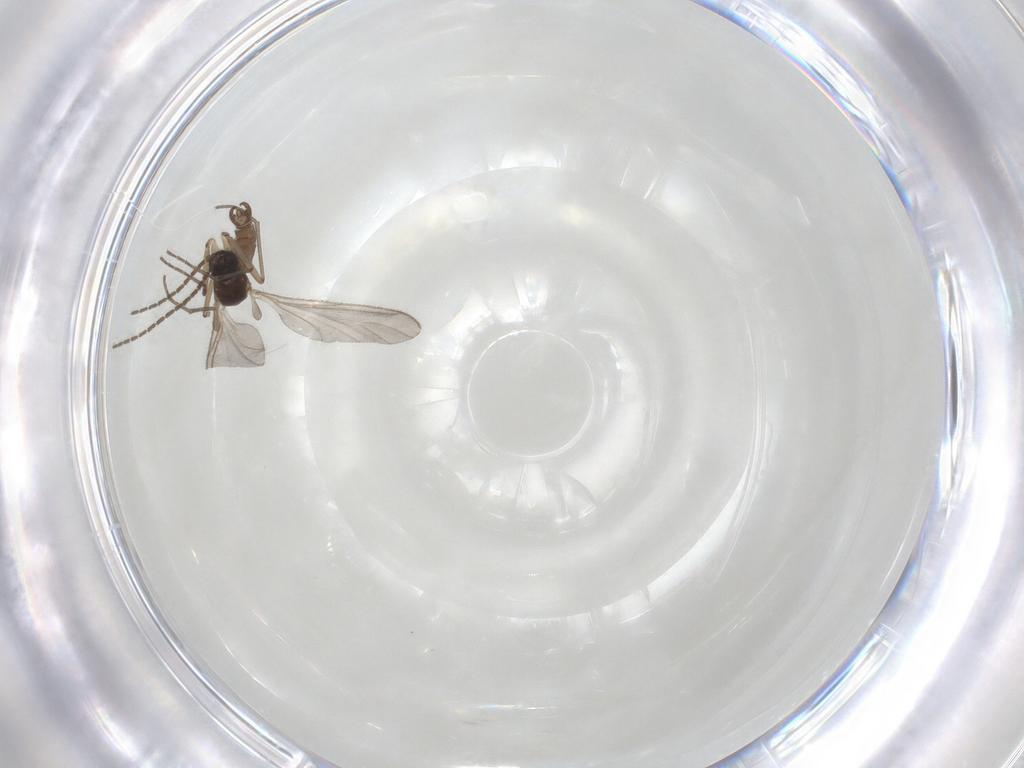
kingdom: Animalia
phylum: Arthropoda
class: Insecta
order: Diptera
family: Sciaridae
